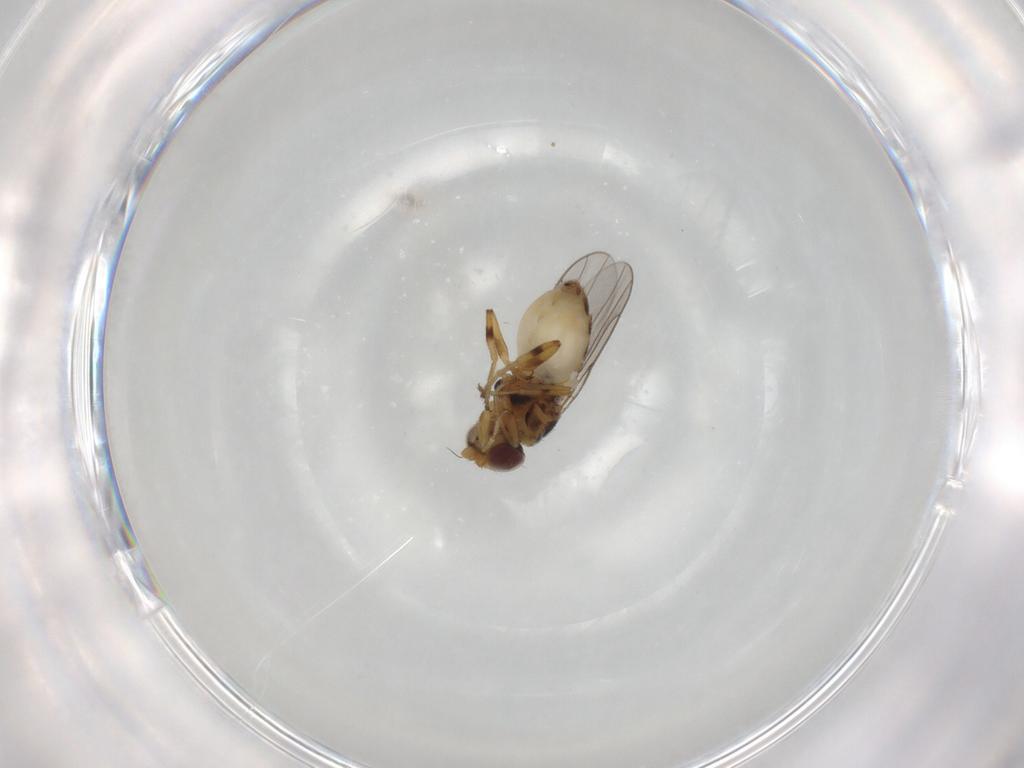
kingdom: Animalia
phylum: Arthropoda
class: Insecta
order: Diptera
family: Chloropidae
